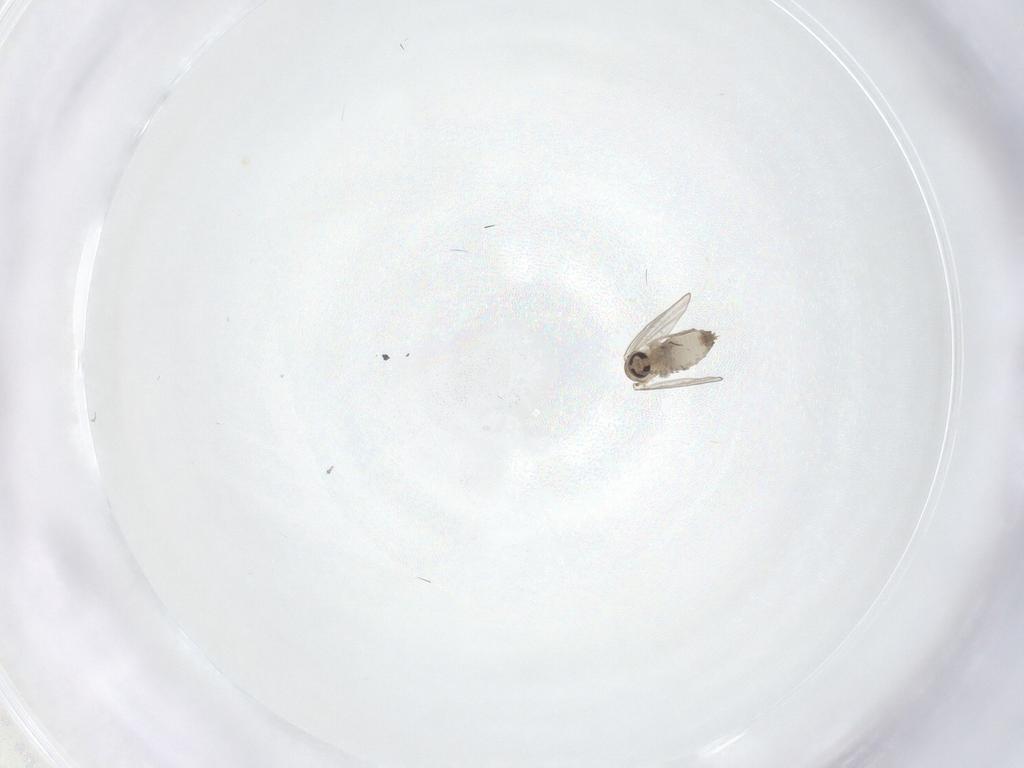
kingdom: Animalia
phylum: Arthropoda
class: Insecta
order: Diptera
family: Psychodidae
